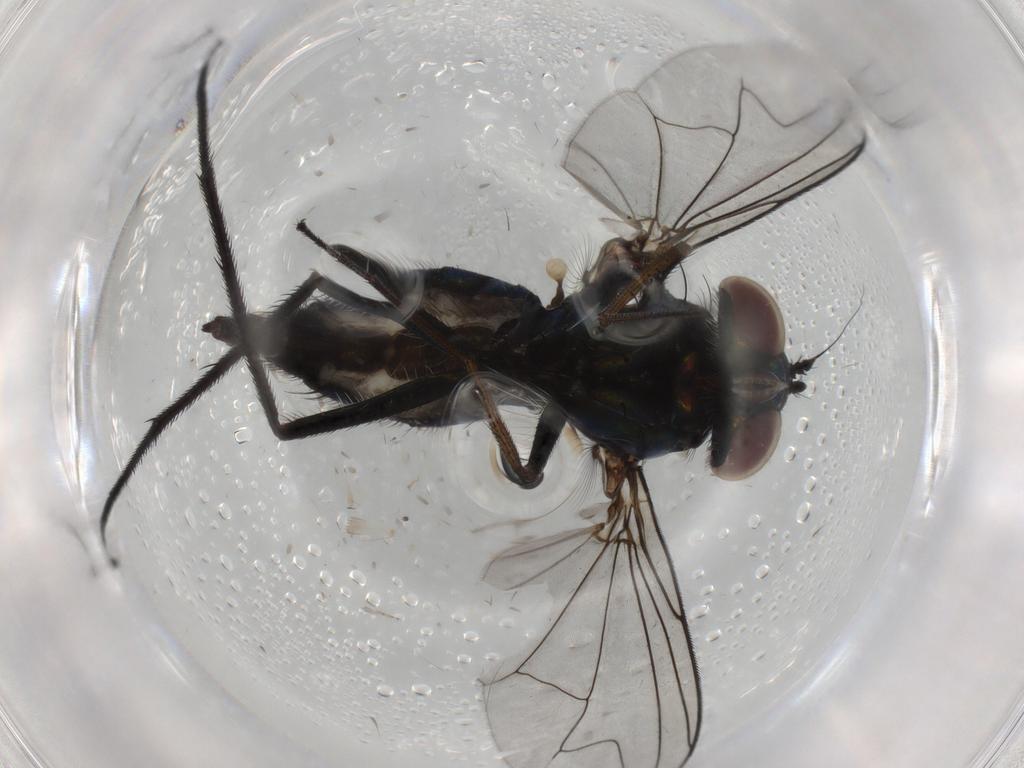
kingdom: Animalia
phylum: Arthropoda
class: Insecta
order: Diptera
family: Dolichopodidae
